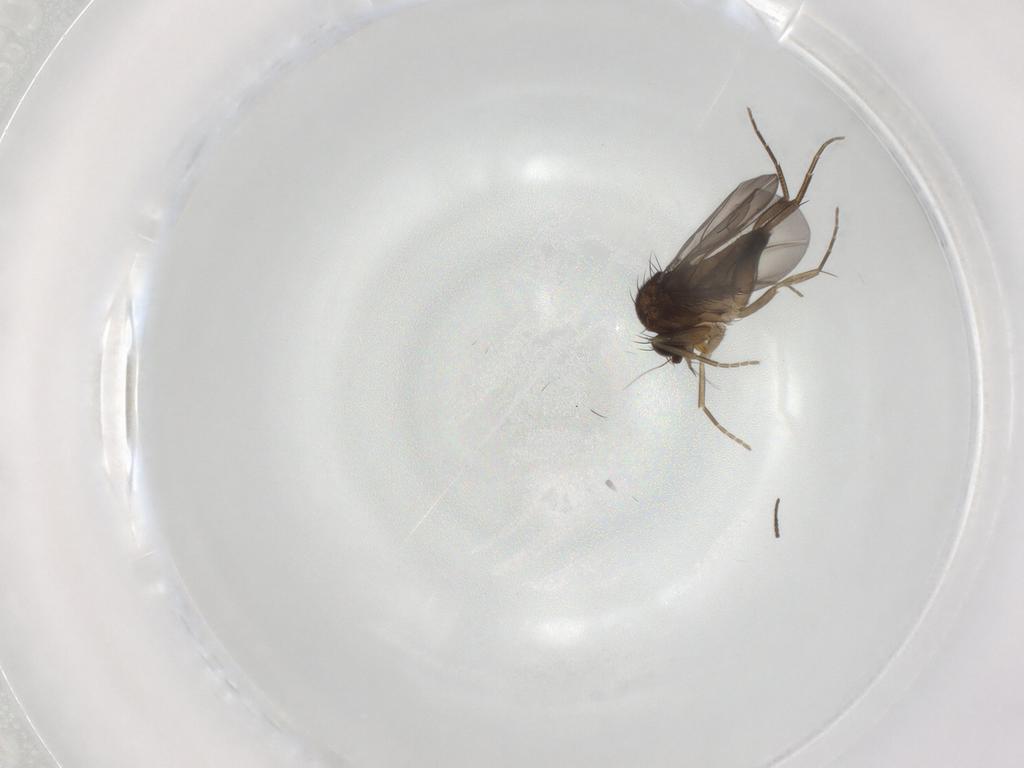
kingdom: Animalia
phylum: Arthropoda
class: Insecta
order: Diptera
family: Phoridae
